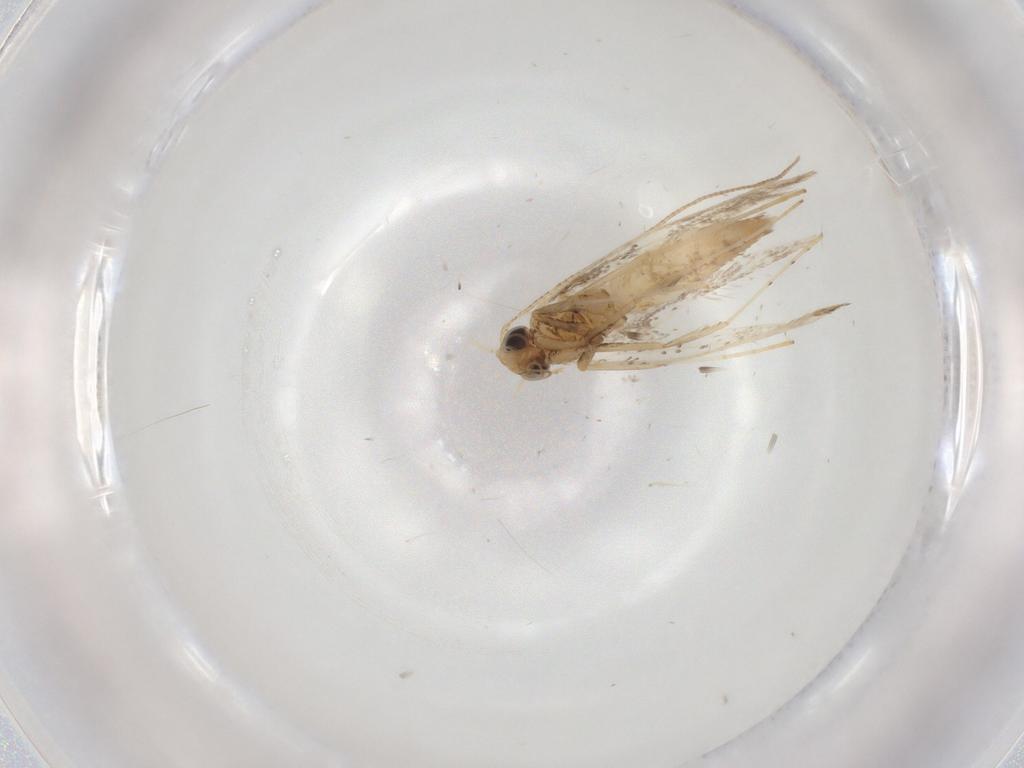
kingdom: Animalia
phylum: Arthropoda
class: Insecta
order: Lepidoptera
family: Gracillariidae
